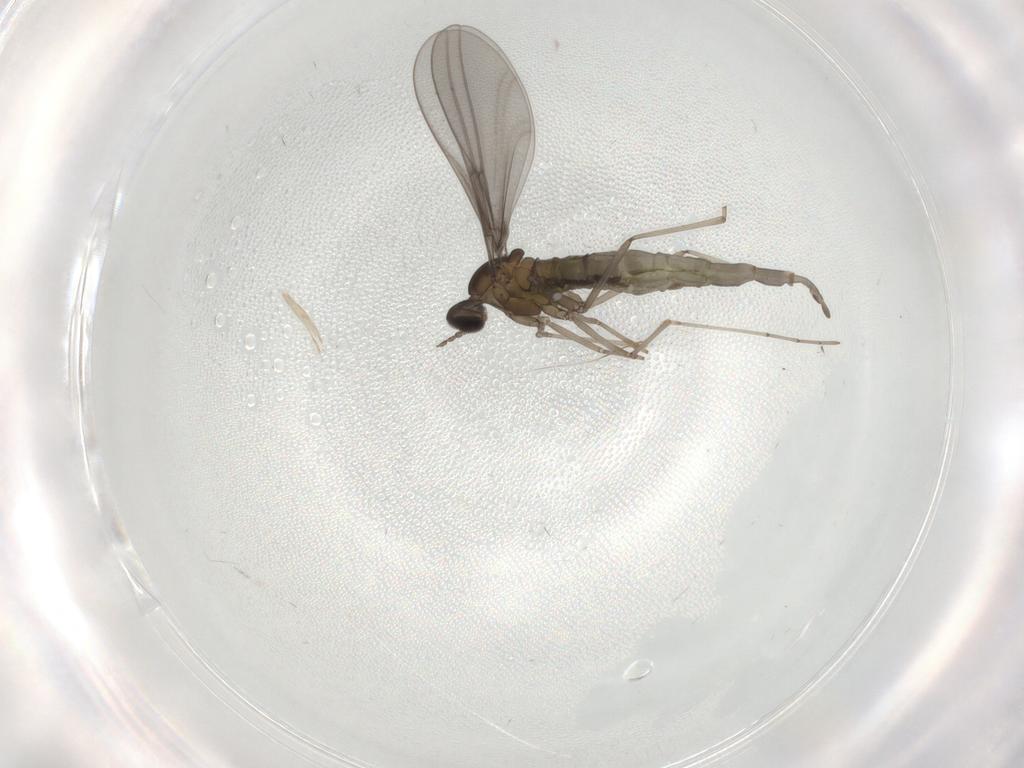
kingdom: Animalia
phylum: Arthropoda
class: Insecta
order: Diptera
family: Cecidomyiidae
